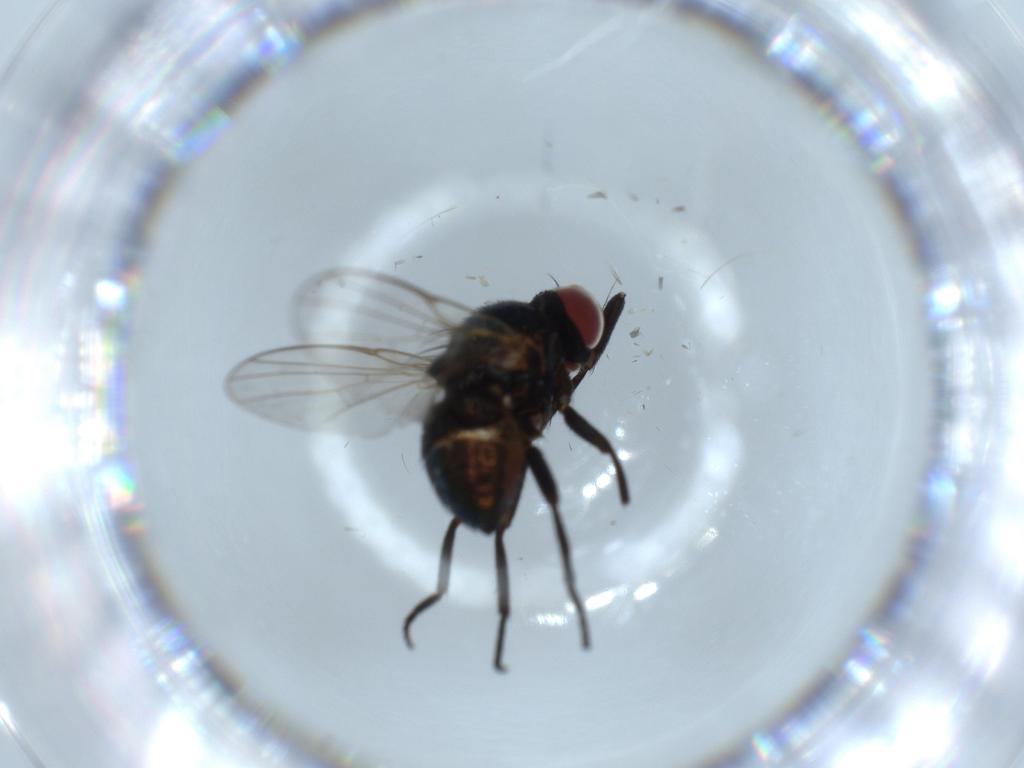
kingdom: Animalia
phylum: Arthropoda
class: Insecta
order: Diptera
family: Agromyzidae
